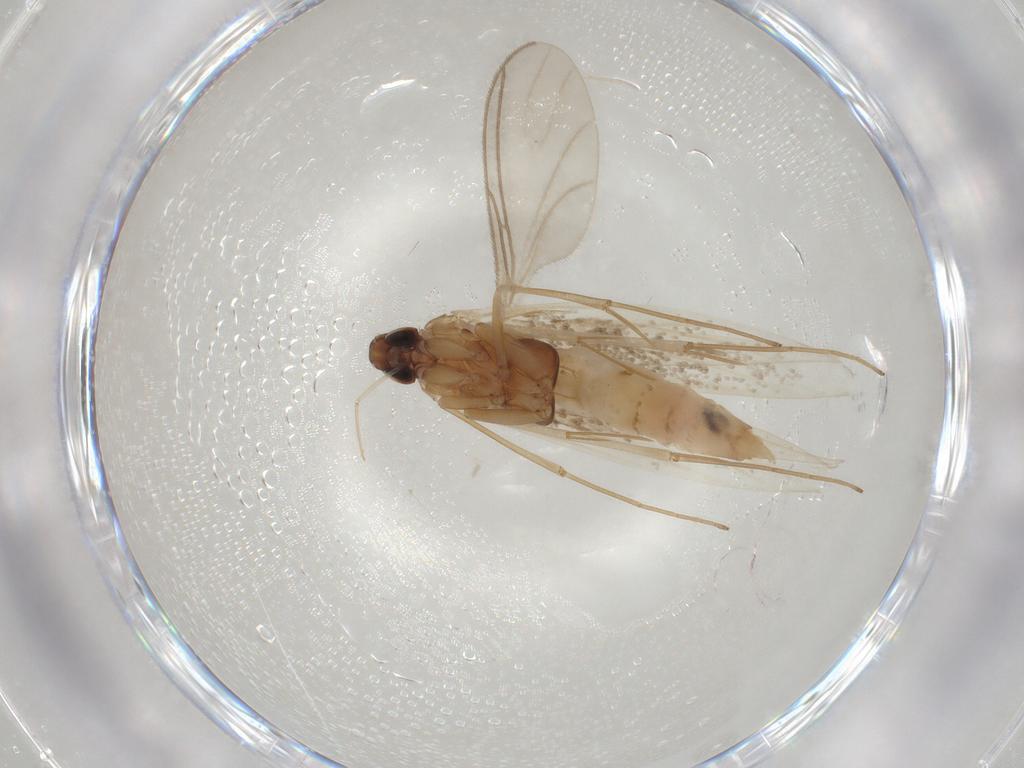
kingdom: Animalia
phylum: Arthropoda
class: Insecta
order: Lepidoptera
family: Coleophoridae
